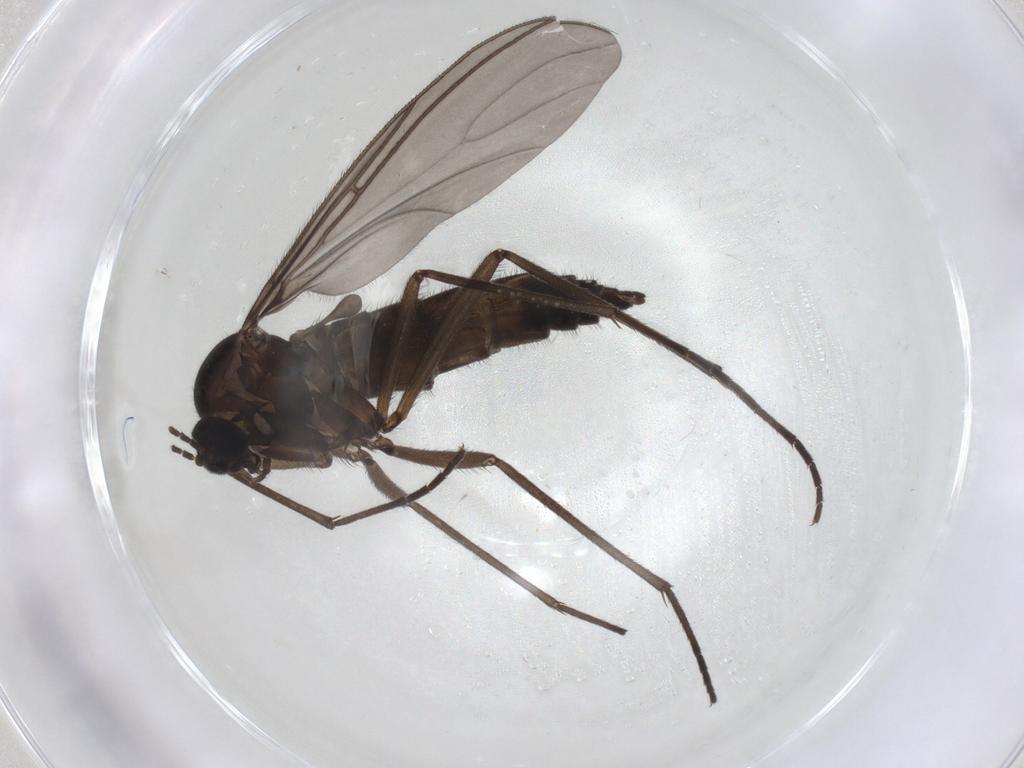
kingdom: Animalia
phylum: Arthropoda
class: Insecta
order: Diptera
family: Sciaridae
